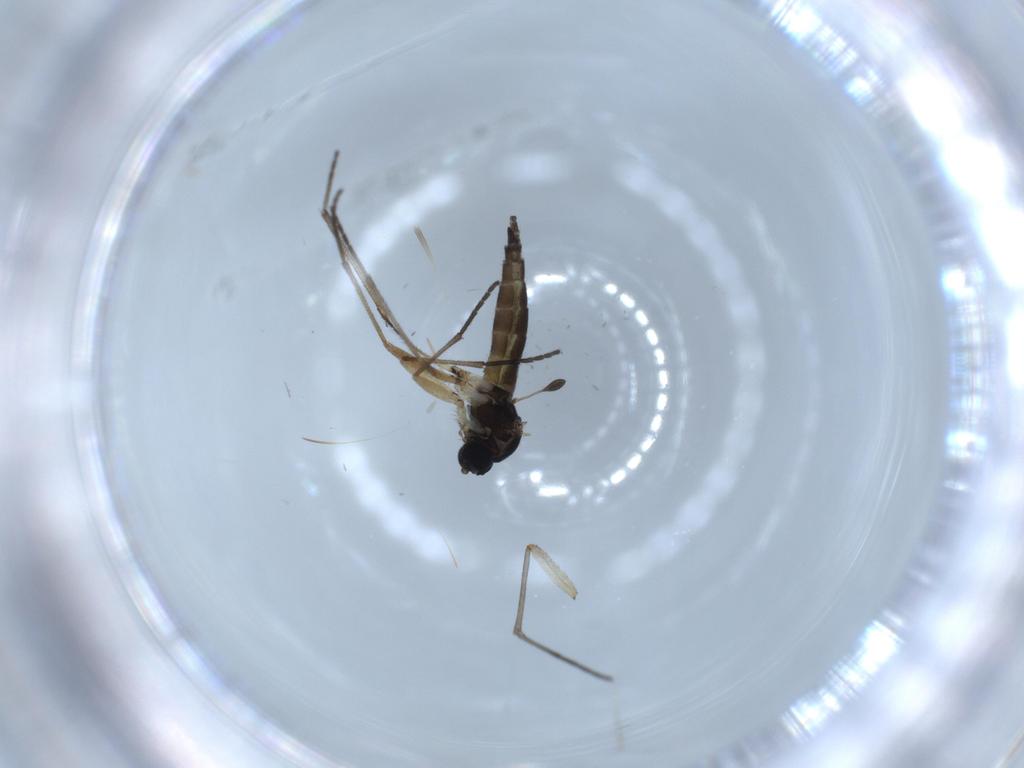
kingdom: Animalia
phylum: Arthropoda
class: Insecta
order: Diptera
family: Sciaridae
